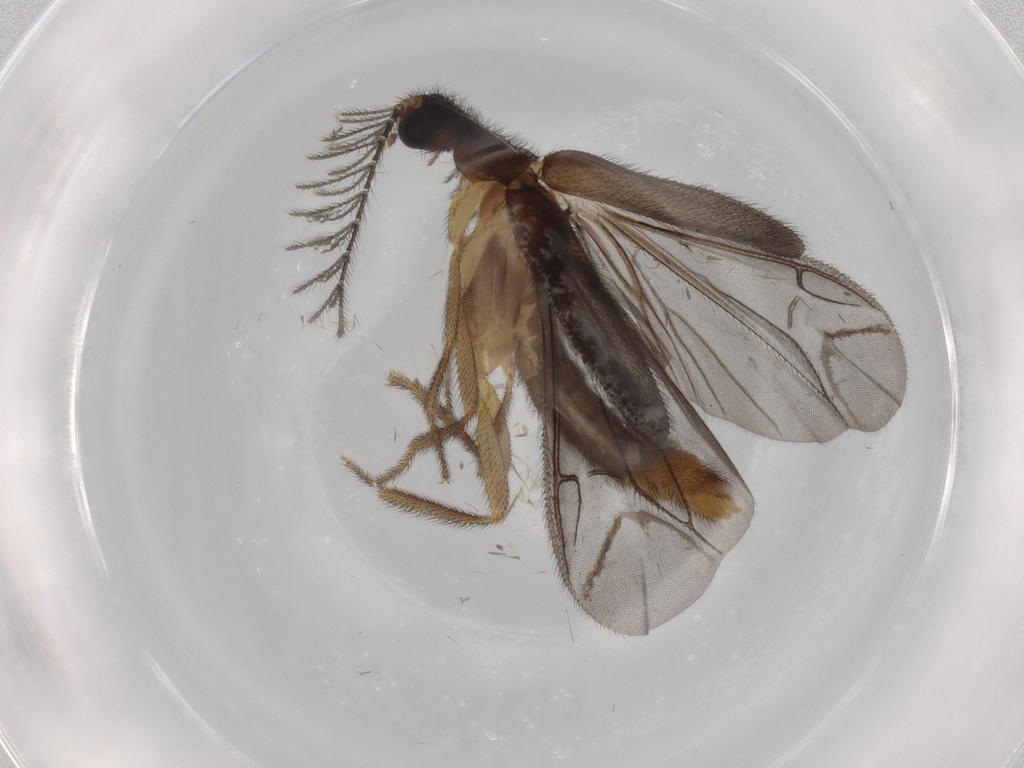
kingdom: Animalia
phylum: Arthropoda
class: Insecta
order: Coleoptera
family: Phengodidae
